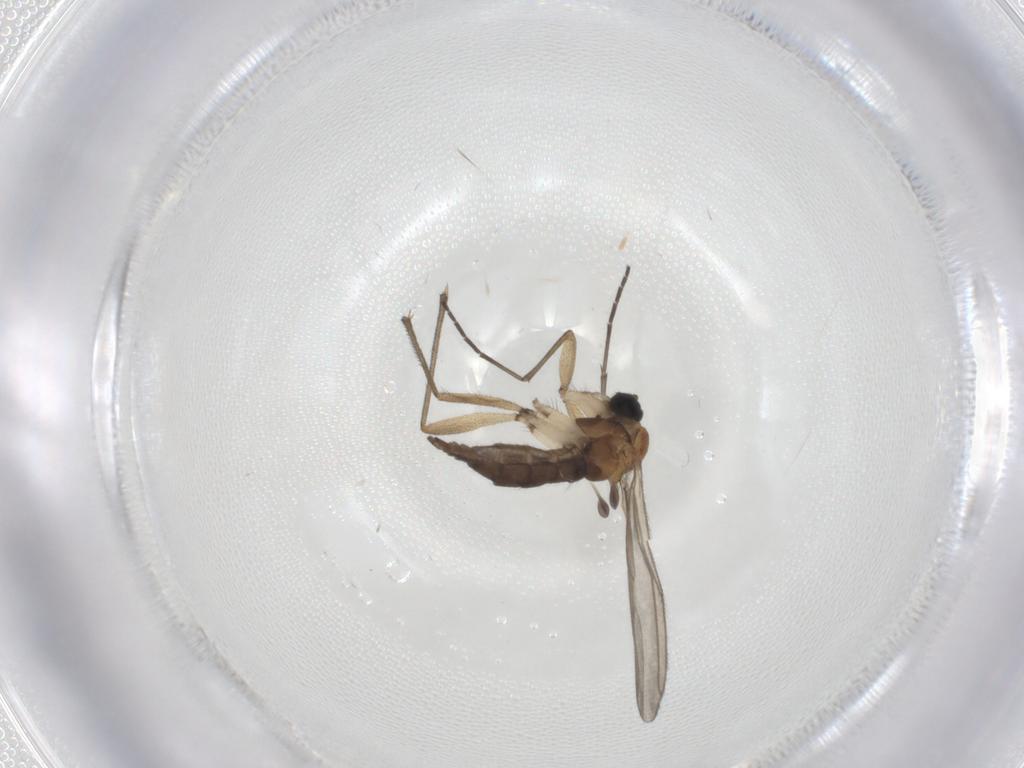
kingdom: Animalia
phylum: Arthropoda
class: Insecta
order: Diptera
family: Sciaridae
